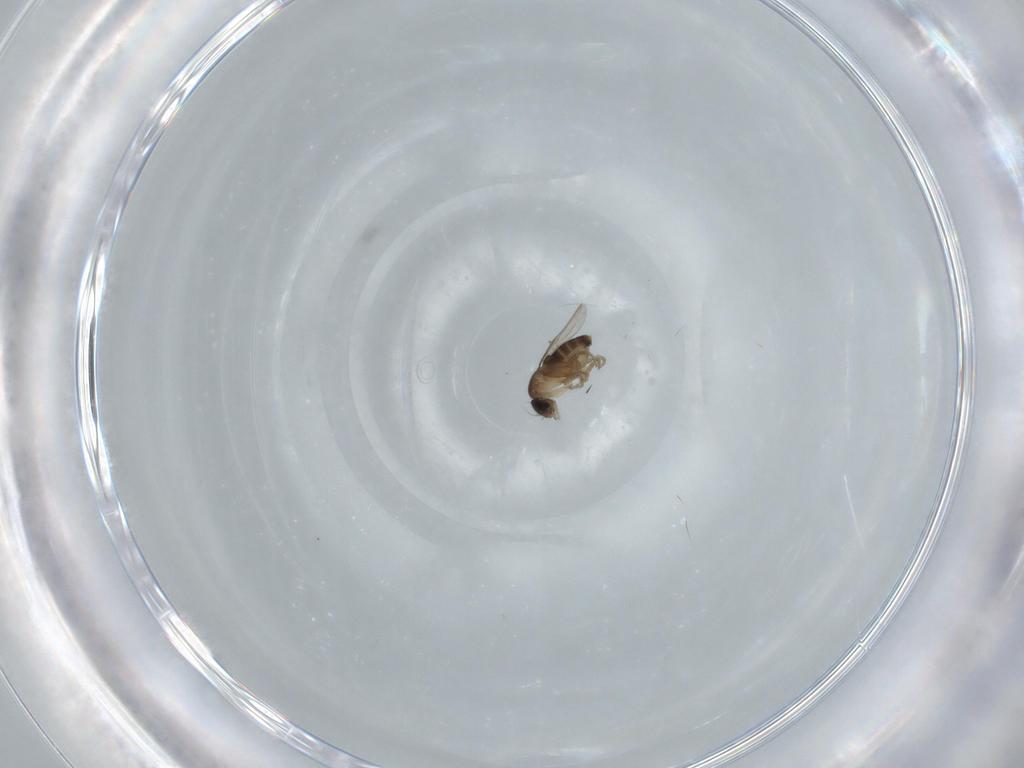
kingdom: Animalia
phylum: Arthropoda
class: Insecta
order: Diptera
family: Phoridae
